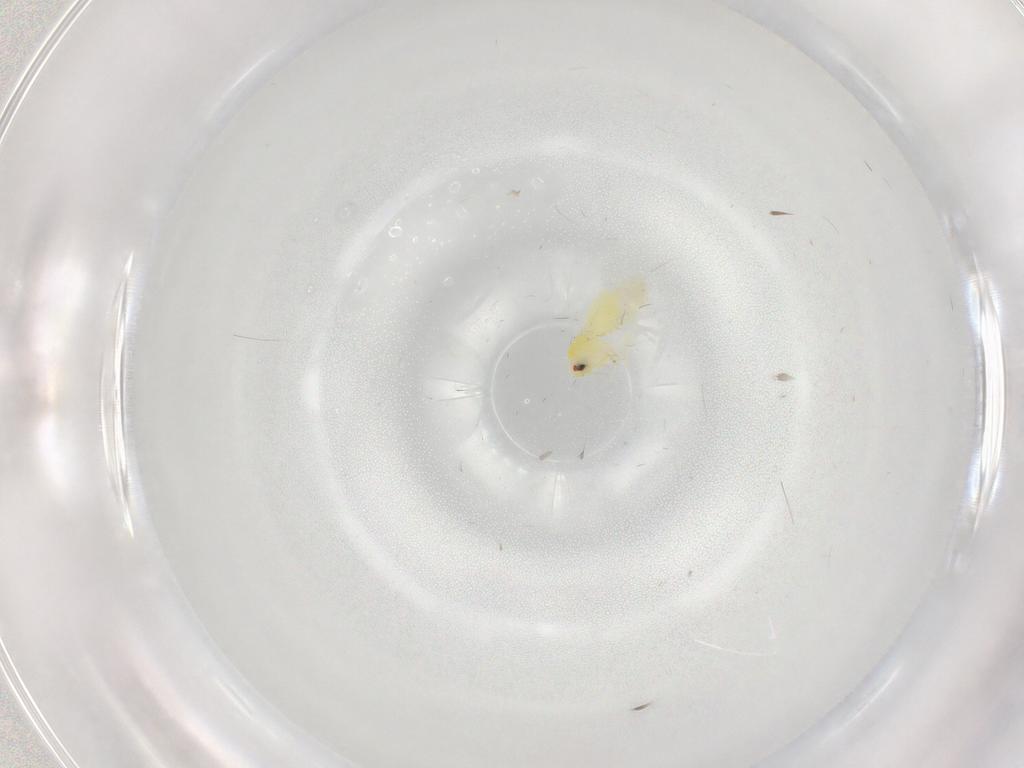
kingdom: Animalia
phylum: Arthropoda
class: Insecta
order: Hemiptera
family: Aleyrodidae
